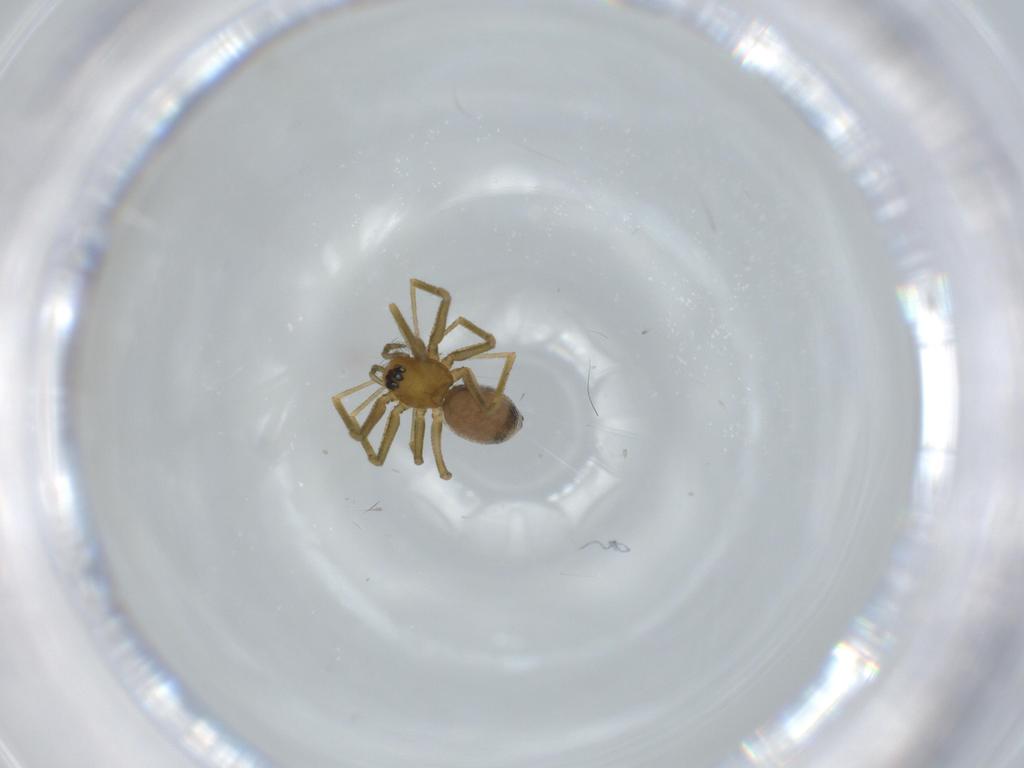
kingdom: Animalia
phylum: Arthropoda
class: Arachnida
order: Araneae
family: Linyphiidae
